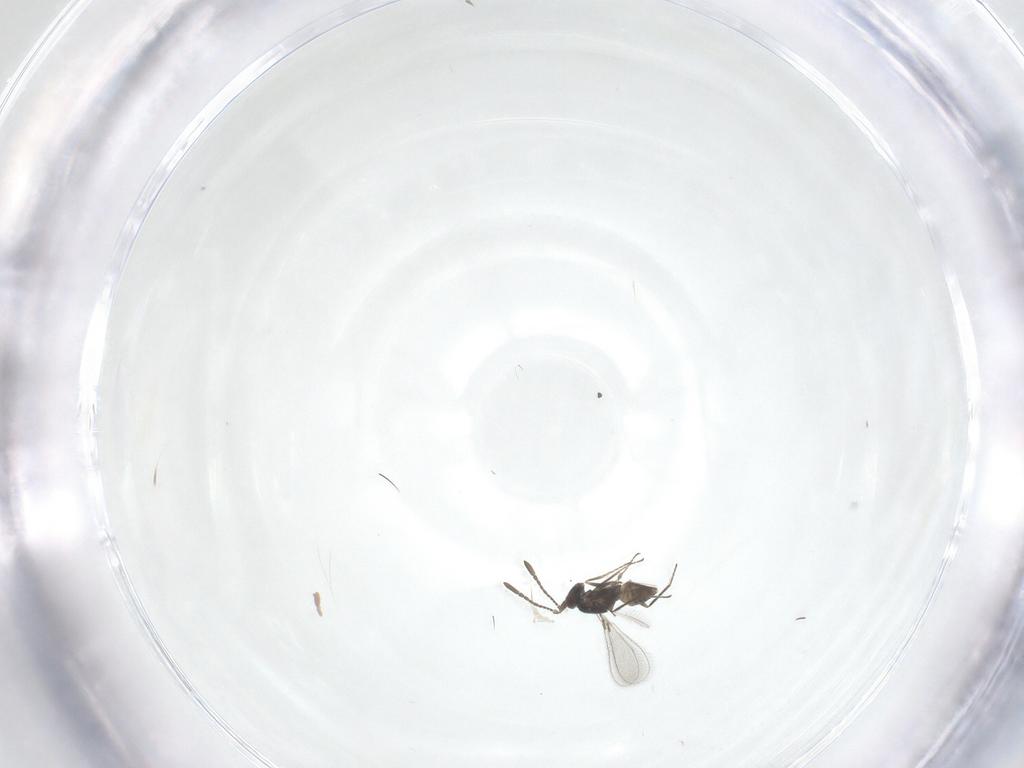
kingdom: Animalia
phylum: Arthropoda
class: Insecta
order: Hymenoptera
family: Mymaridae
